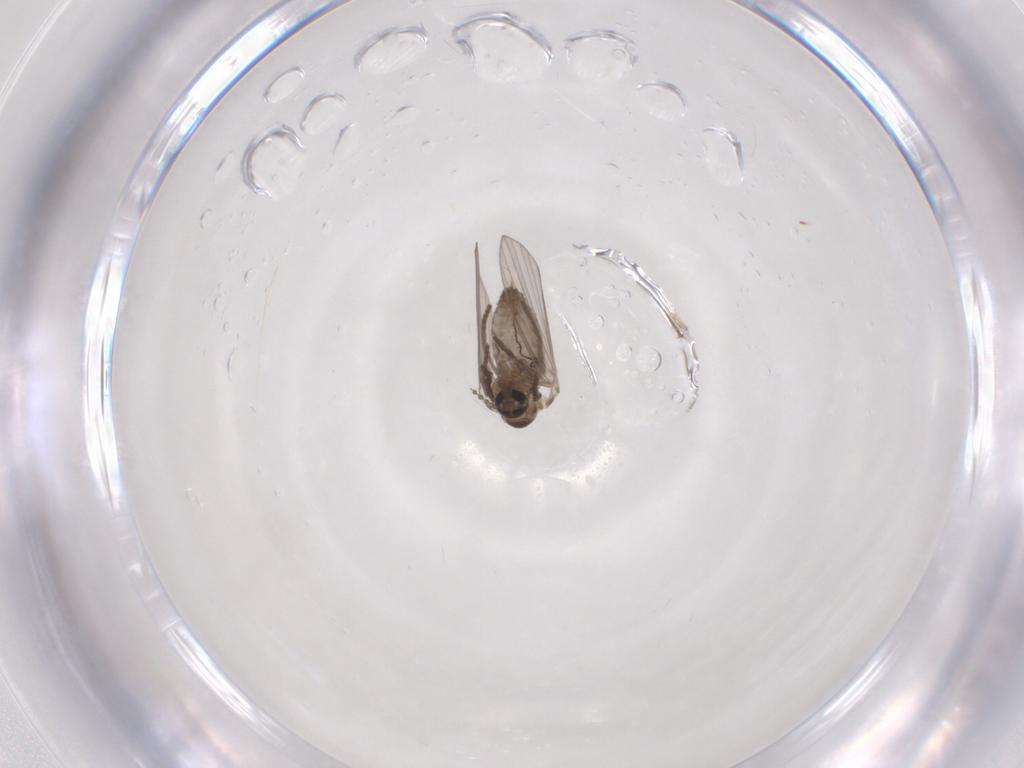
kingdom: Animalia
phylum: Arthropoda
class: Insecta
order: Diptera
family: Psychodidae
